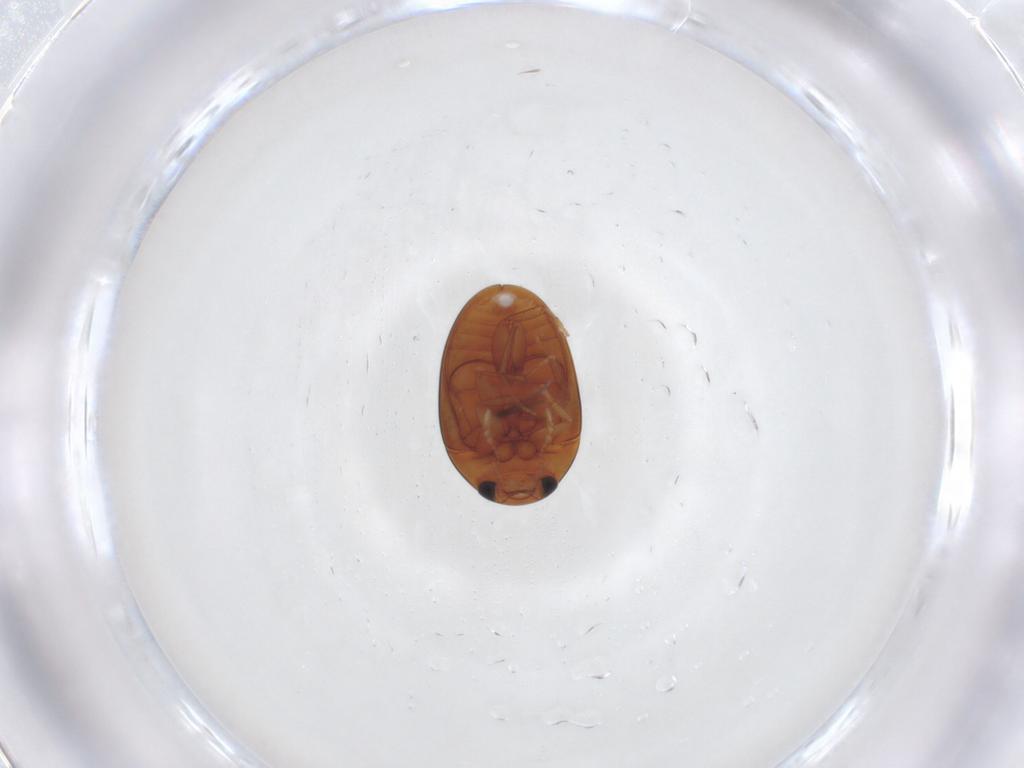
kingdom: Animalia
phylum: Arthropoda
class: Insecta
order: Coleoptera
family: Phalacridae
